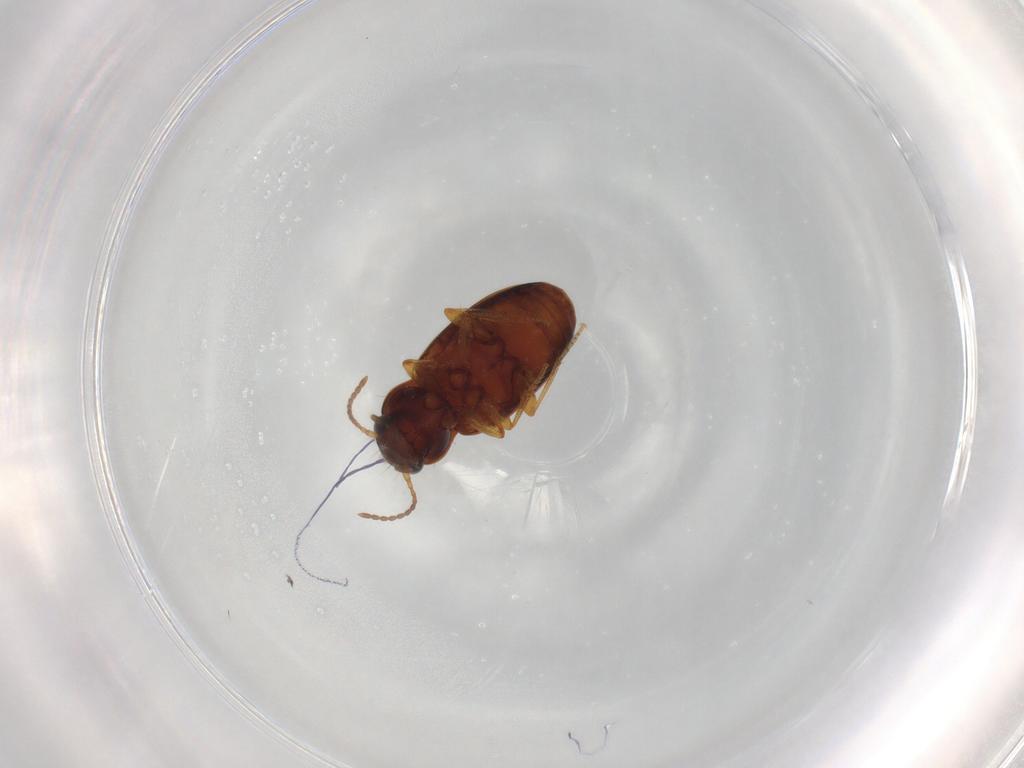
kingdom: Animalia
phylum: Arthropoda
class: Insecta
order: Coleoptera
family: Carabidae
